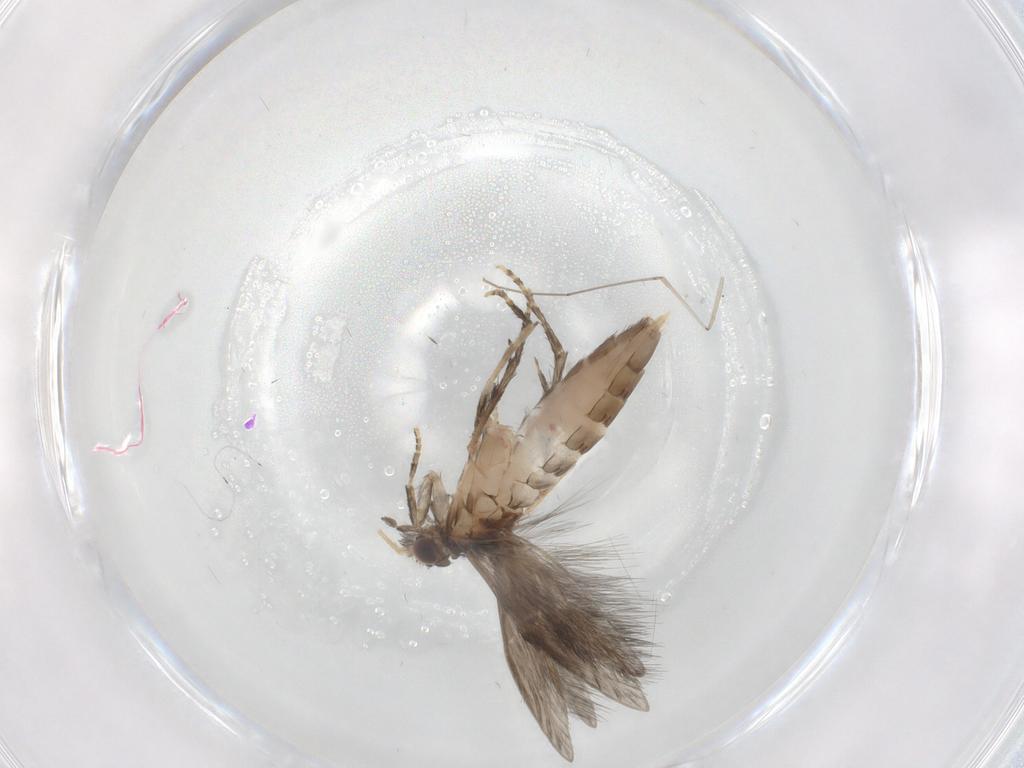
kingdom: Animalia
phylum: Arthropoda
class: Insecta
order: Trichoptera
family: Hydroptilidae
